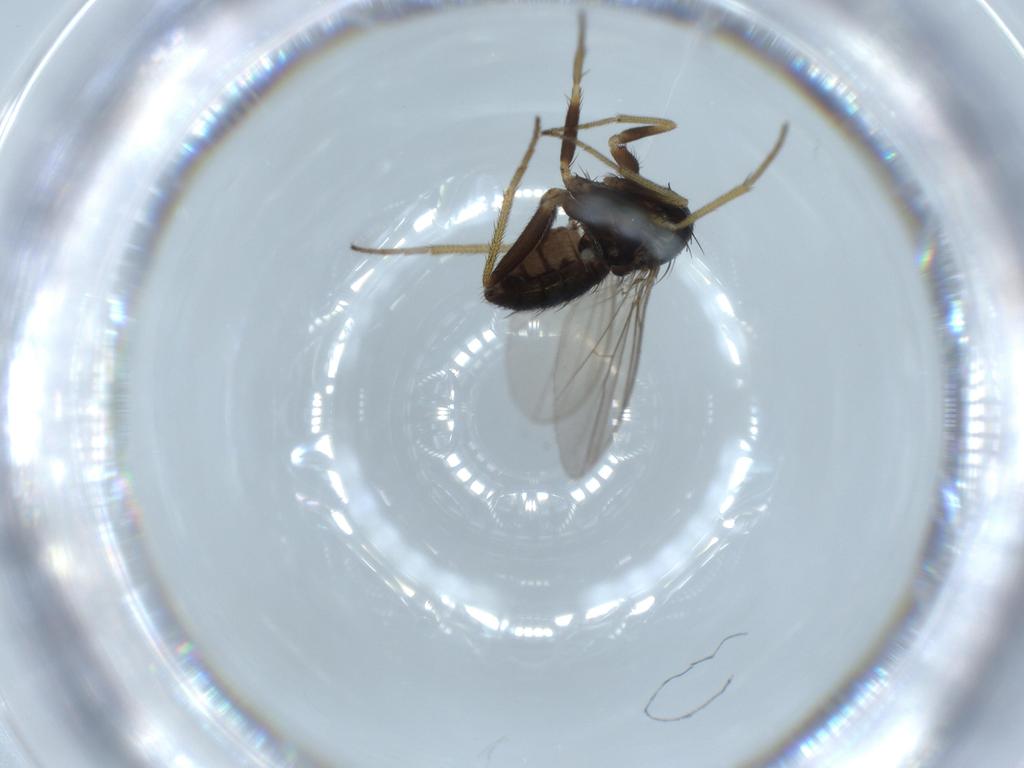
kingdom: Animalia
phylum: Arthropoda
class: Insecta
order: Diptera
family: Dolichopodidae
